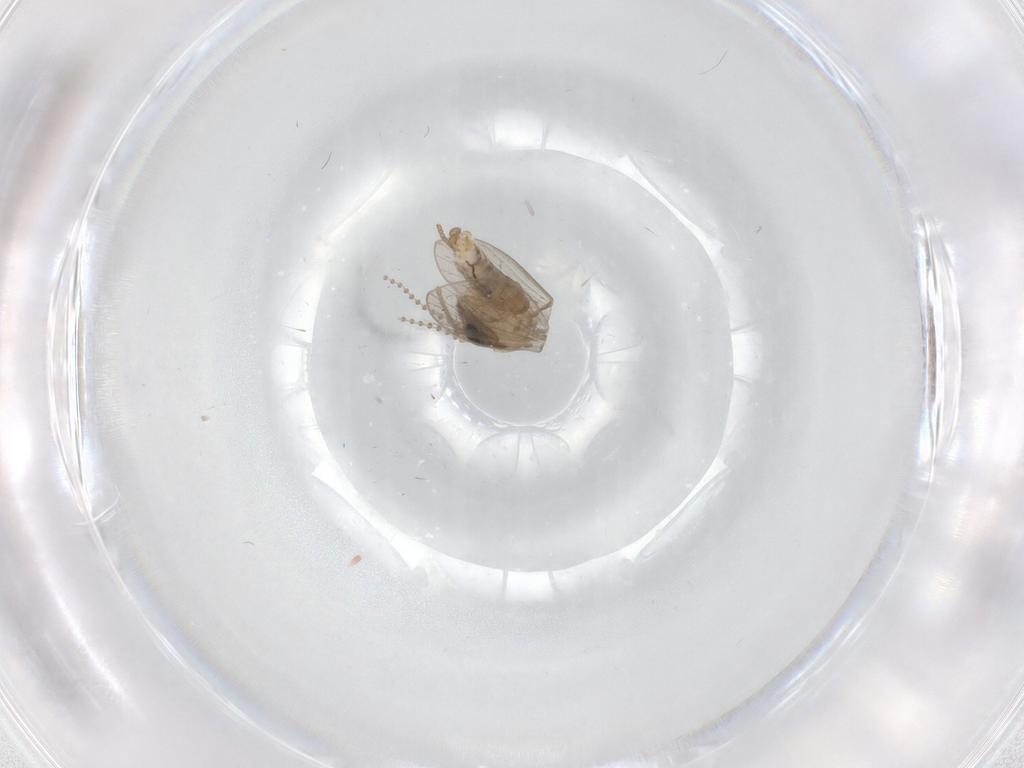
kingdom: Animalia
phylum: Arthropoda
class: Insecta
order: Diptera
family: Psychodidae
